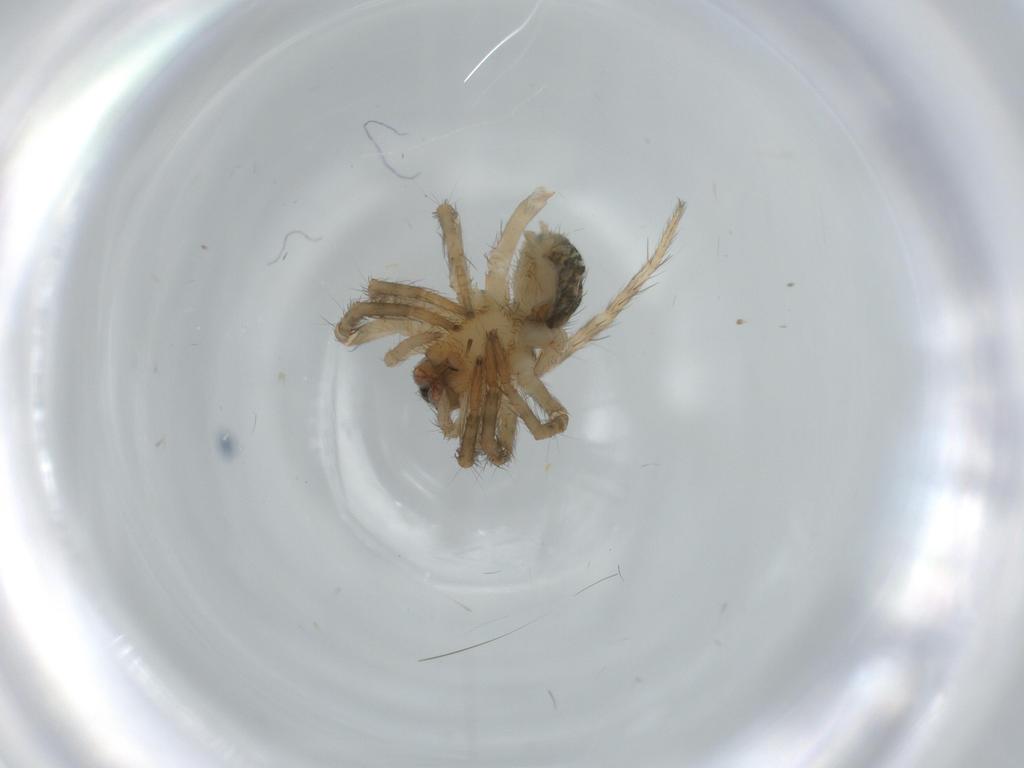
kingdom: Animalia
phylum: Arthropoda
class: Arachnida
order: Araneae
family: Lycosidae
